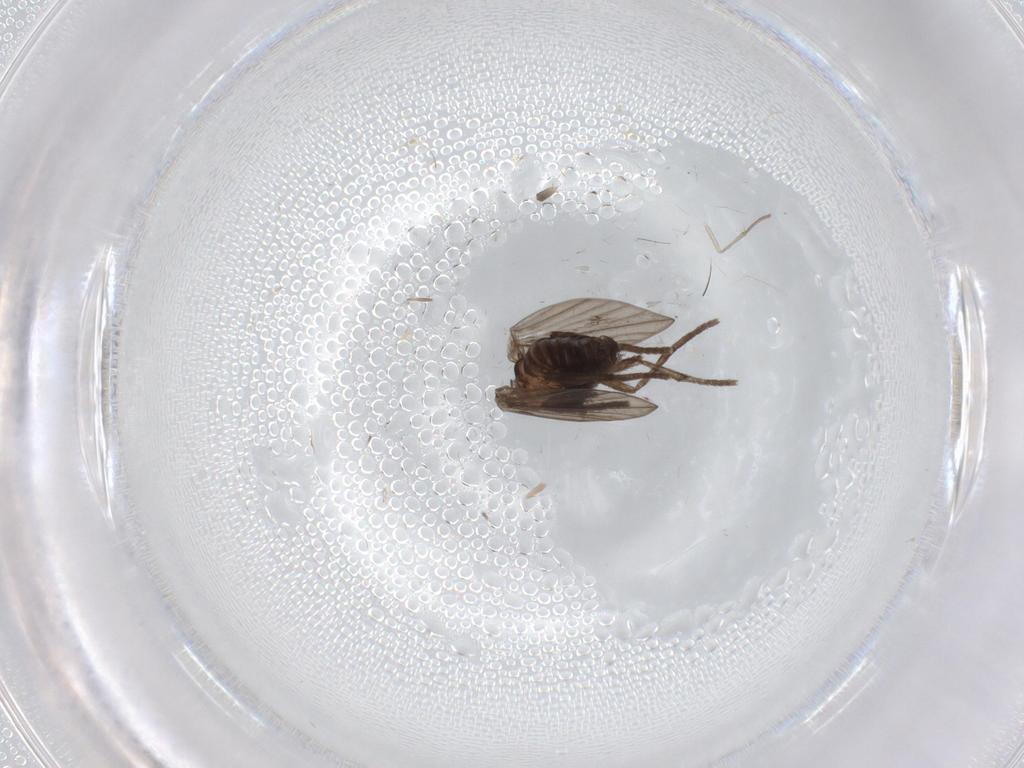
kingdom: Animalia
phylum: Arthropoda
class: Insecta
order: Diptera
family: Psychodidae
